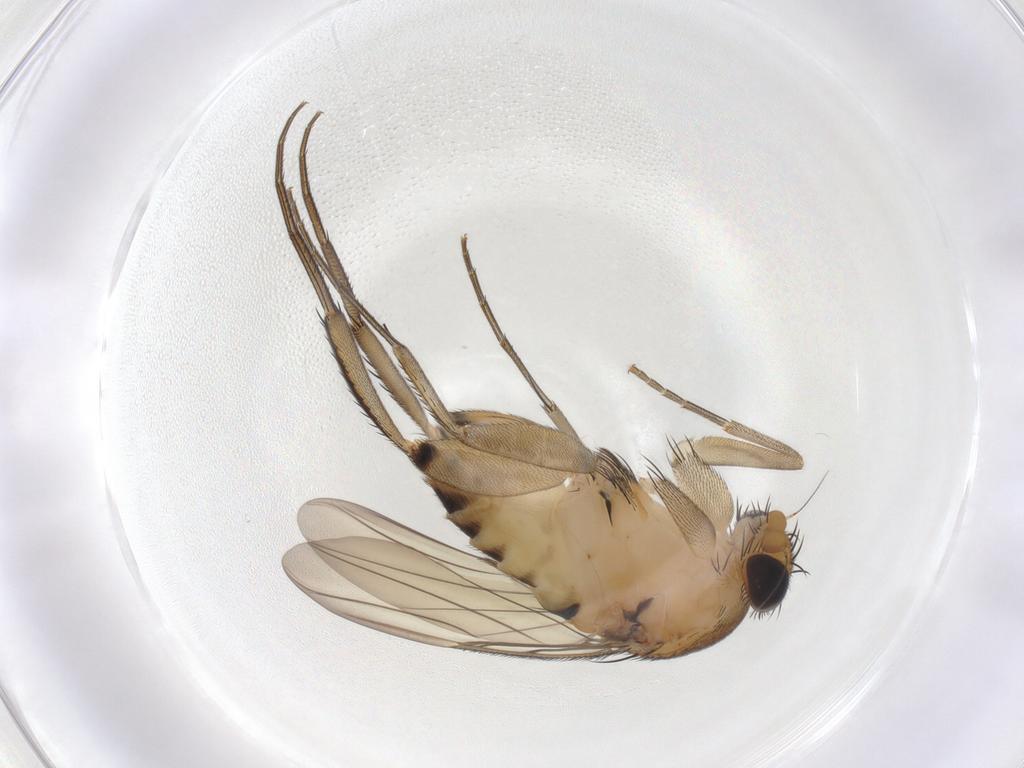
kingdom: Animalia
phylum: Arthropoda
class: Insecta
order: Diptera
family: Phoridae
